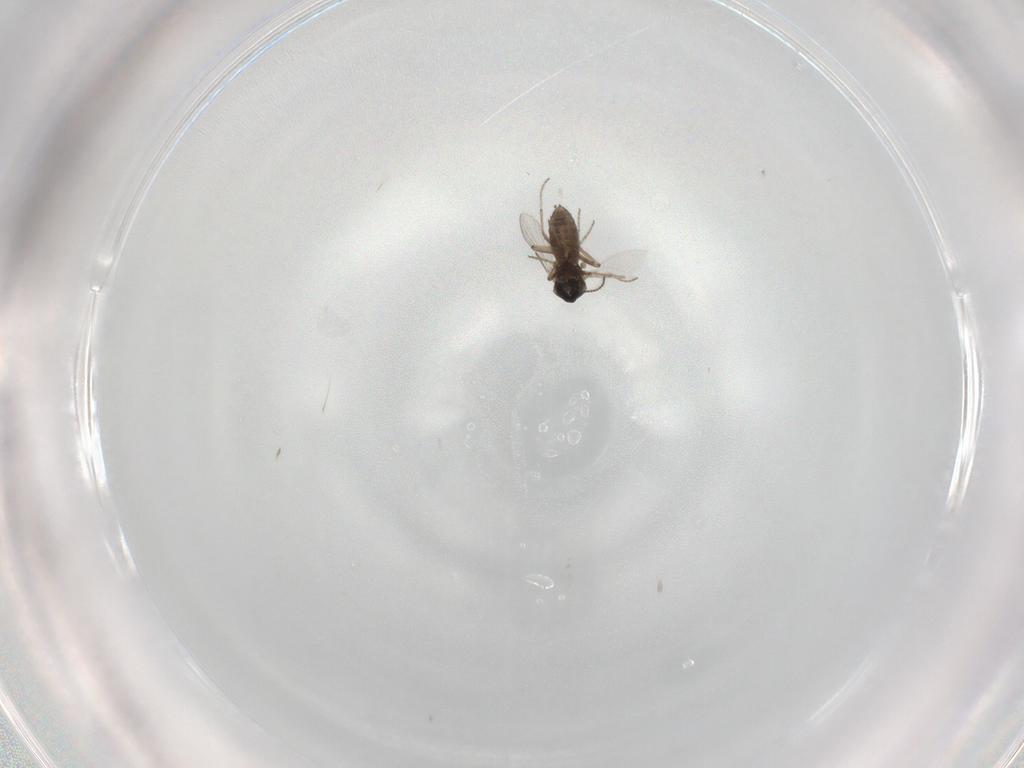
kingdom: Animalia
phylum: Arthropoda
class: Insecta
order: Diptera
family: Ceratopogonidae
